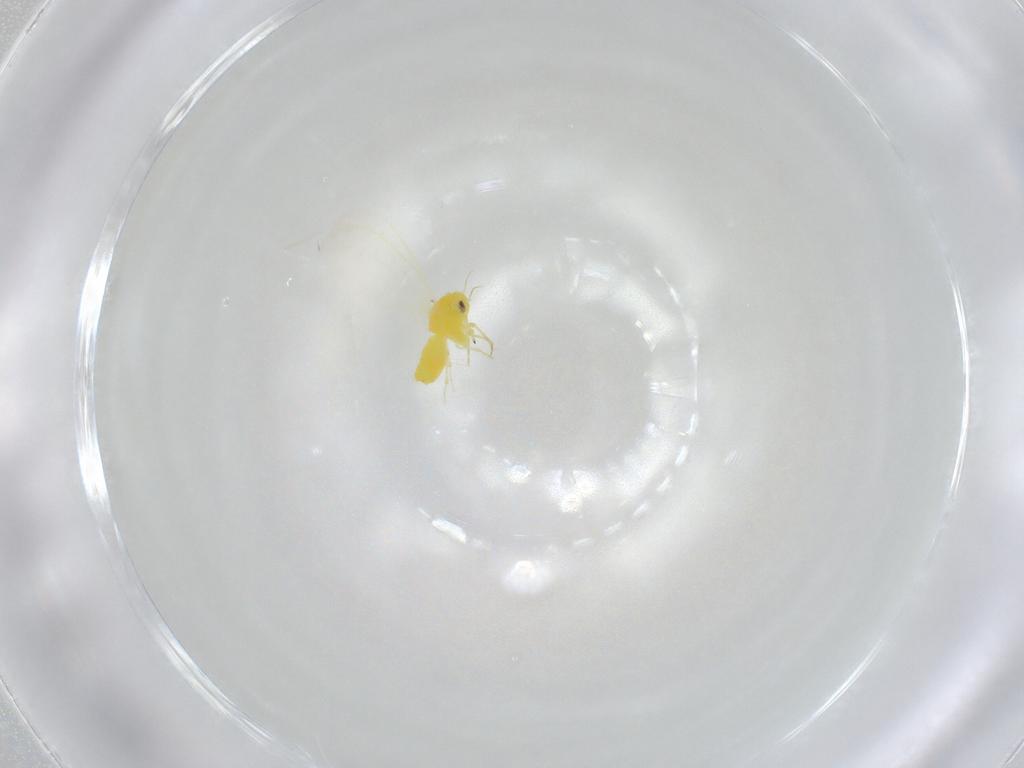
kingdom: Animalia
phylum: Arthropoda
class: Insecta
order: Hemiptera
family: Aleyrodidae
